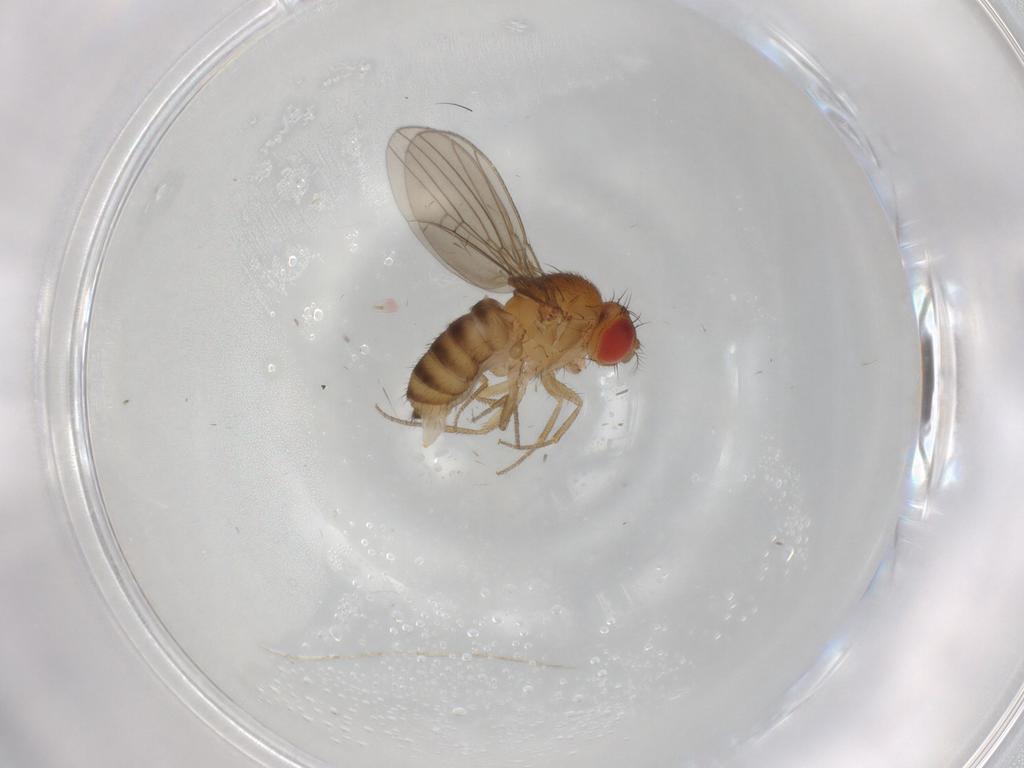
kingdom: Animalia
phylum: Arthropoda
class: Insecta
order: Diptera
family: Drosophilidae
